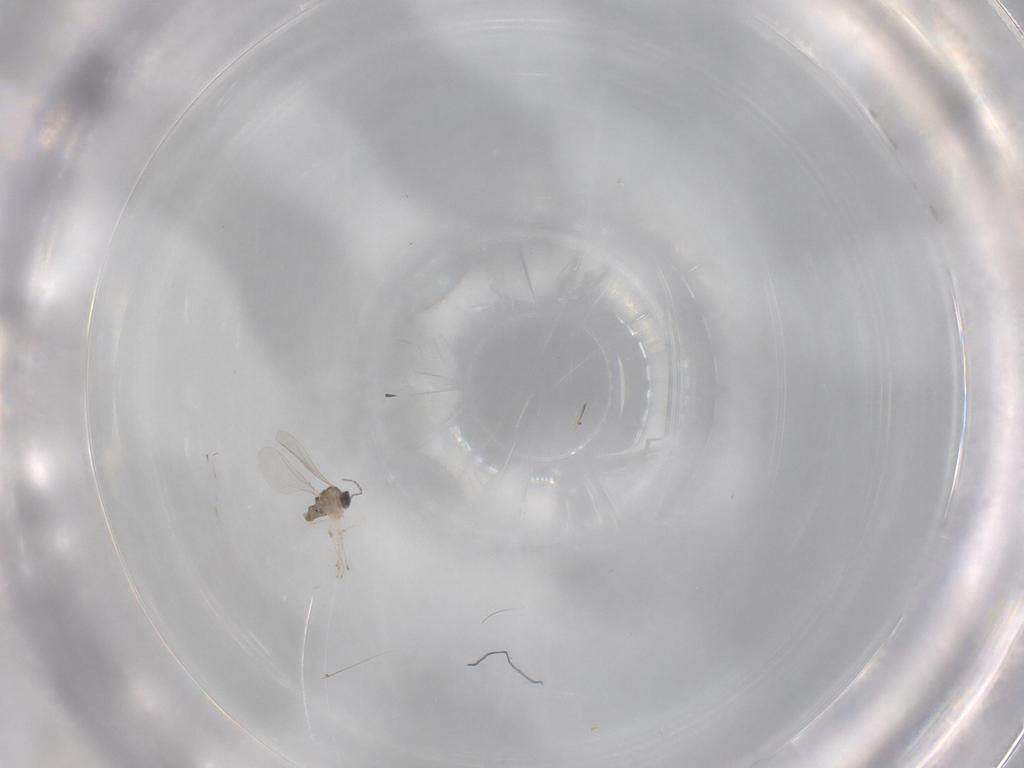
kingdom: Animalia
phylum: Arthropoda
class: Insecta
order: Diptera
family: Cecidomyiidae
